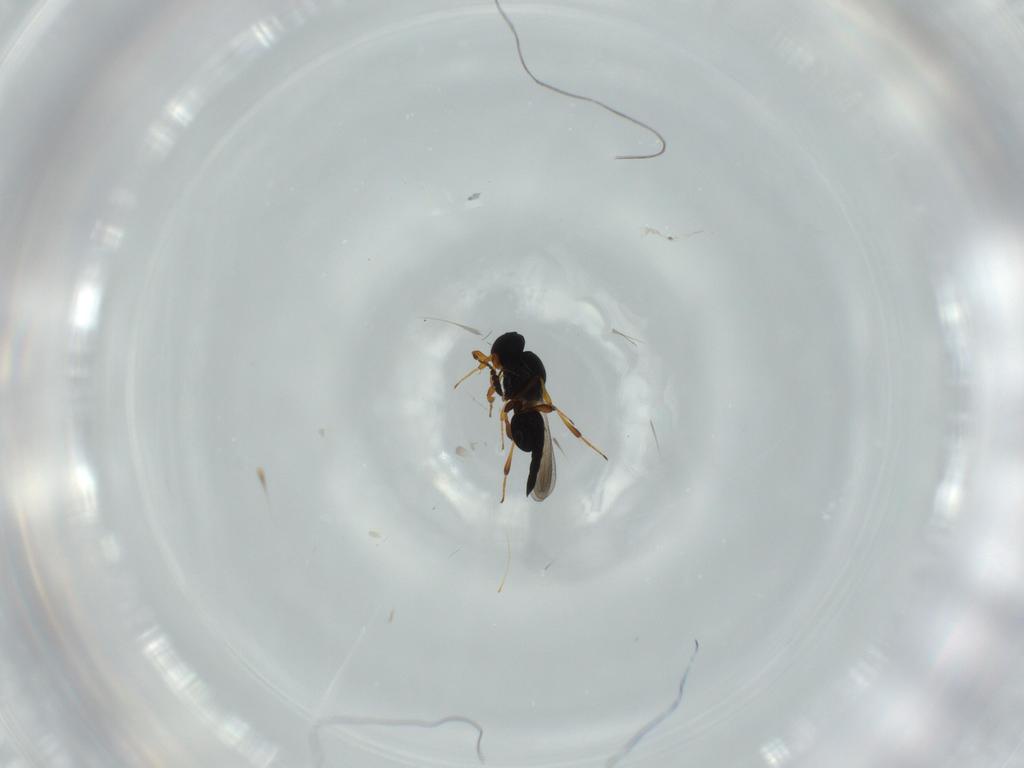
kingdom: Animalia
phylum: Arthropoda
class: Insecta
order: Hymenoptera
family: Platygastridae
